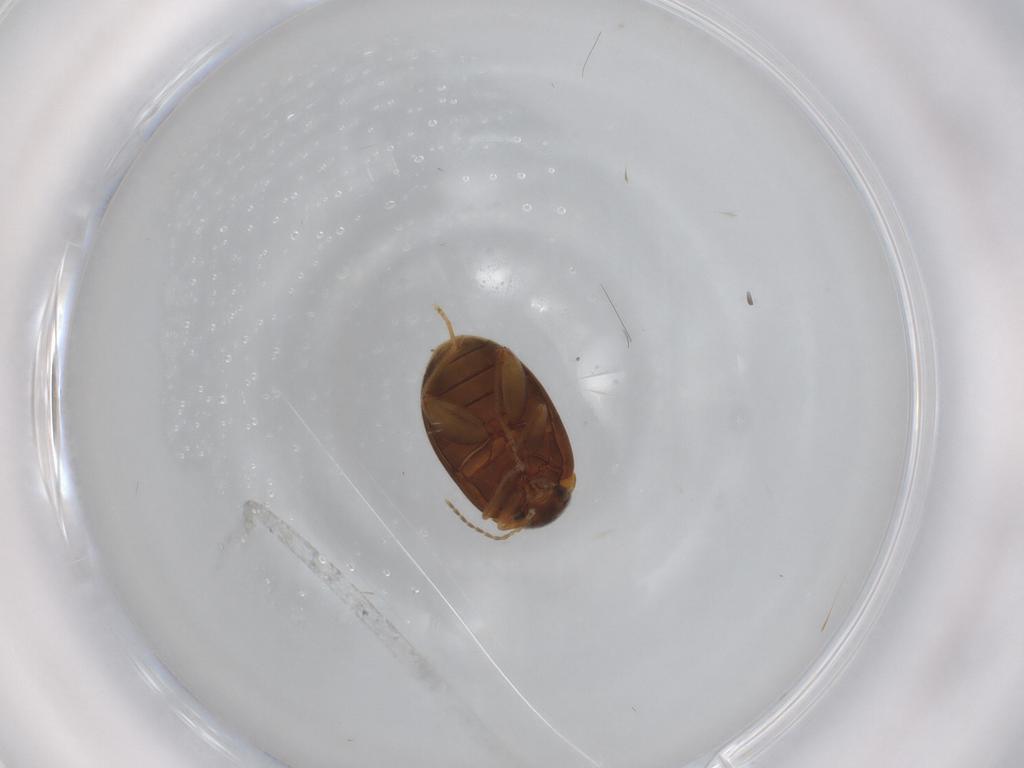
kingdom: Animalia
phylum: Arthropoda
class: Insecta
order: Coleoptera
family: Scirtidae
